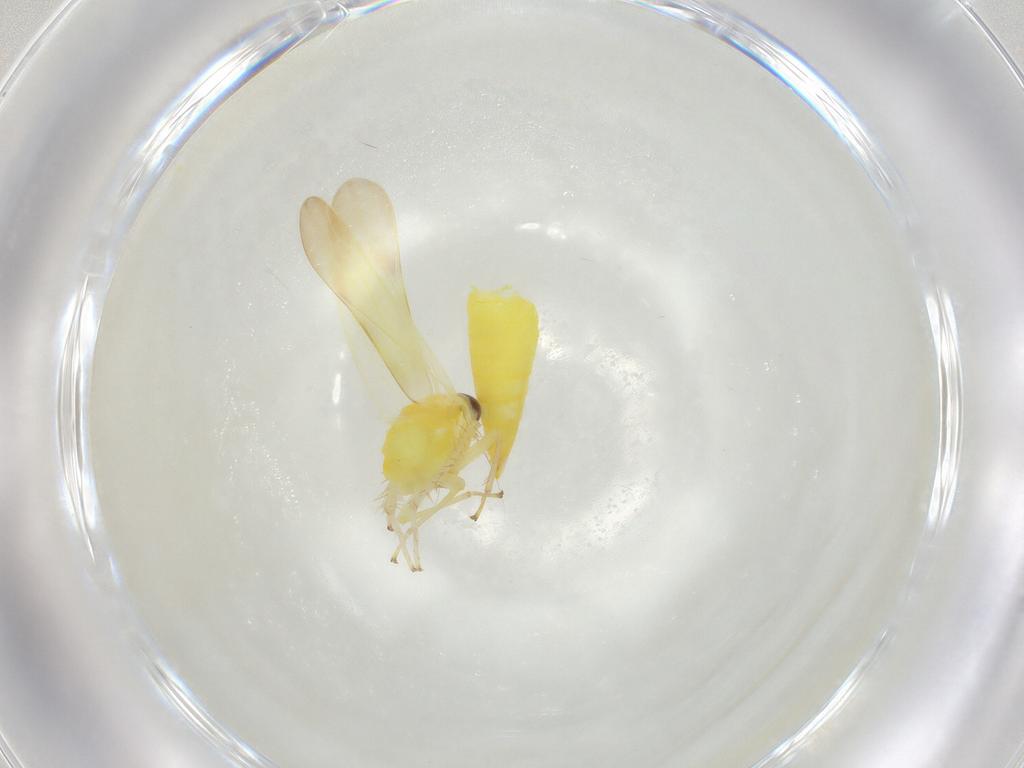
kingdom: Animalia
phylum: Arthropoda
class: Insecta
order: Hemiptera
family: Cicadellidae
